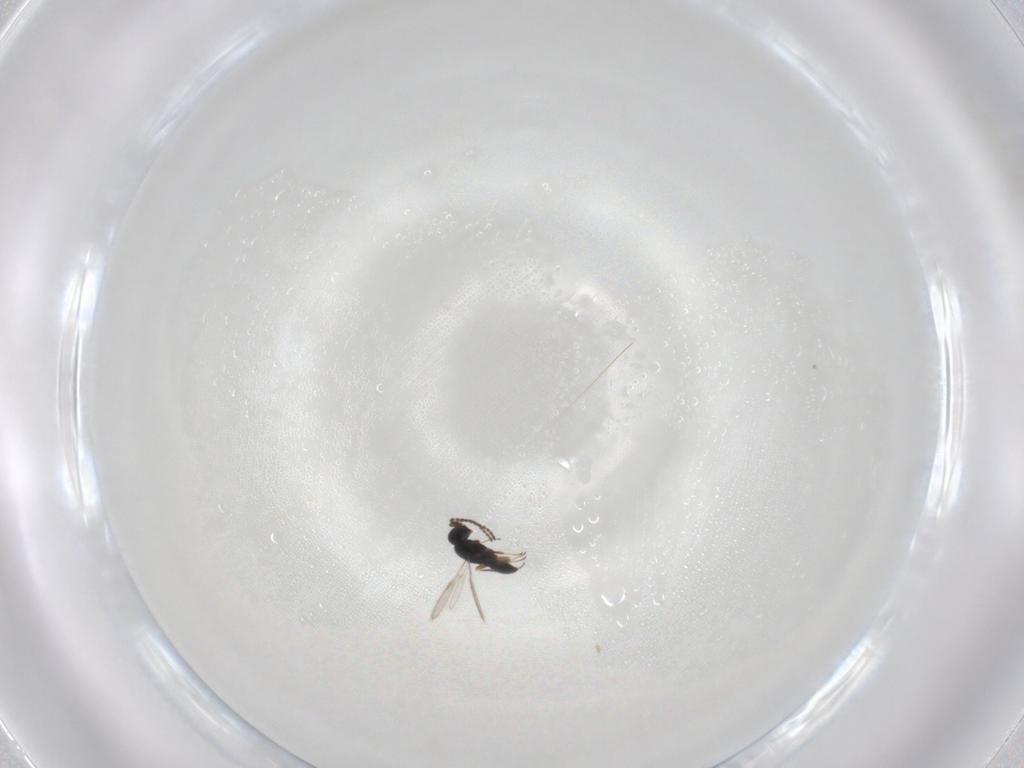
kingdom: Animalia
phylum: Arthropoda
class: Insecta
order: Hymenoptera
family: Scelionidae
